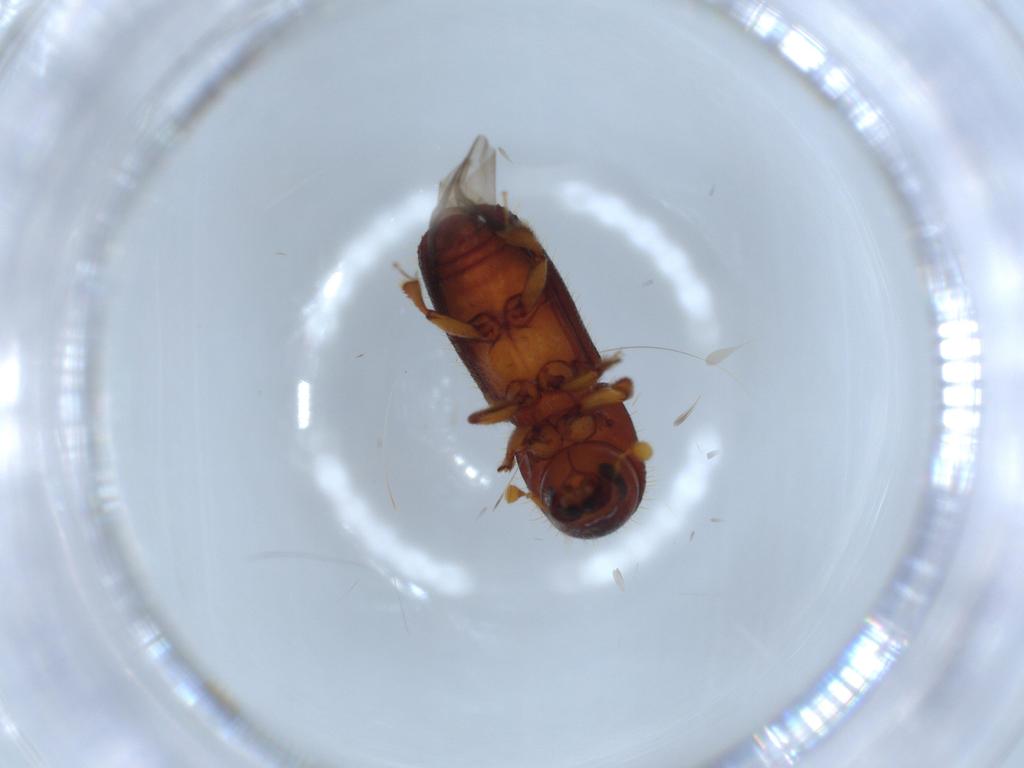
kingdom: Animalia
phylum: Arthropoda
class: Insecta
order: Coleoptera
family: Curculionidae
